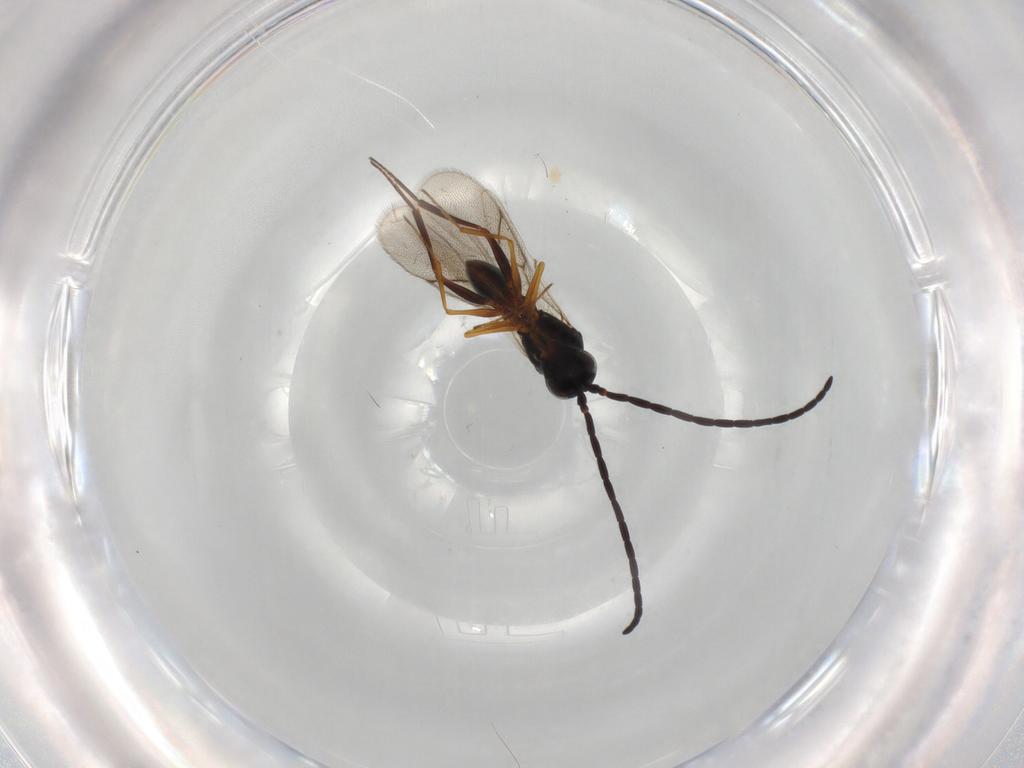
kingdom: Animalia
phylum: Arthropoda
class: Insecta
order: Hymenoptera
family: Figitidae
